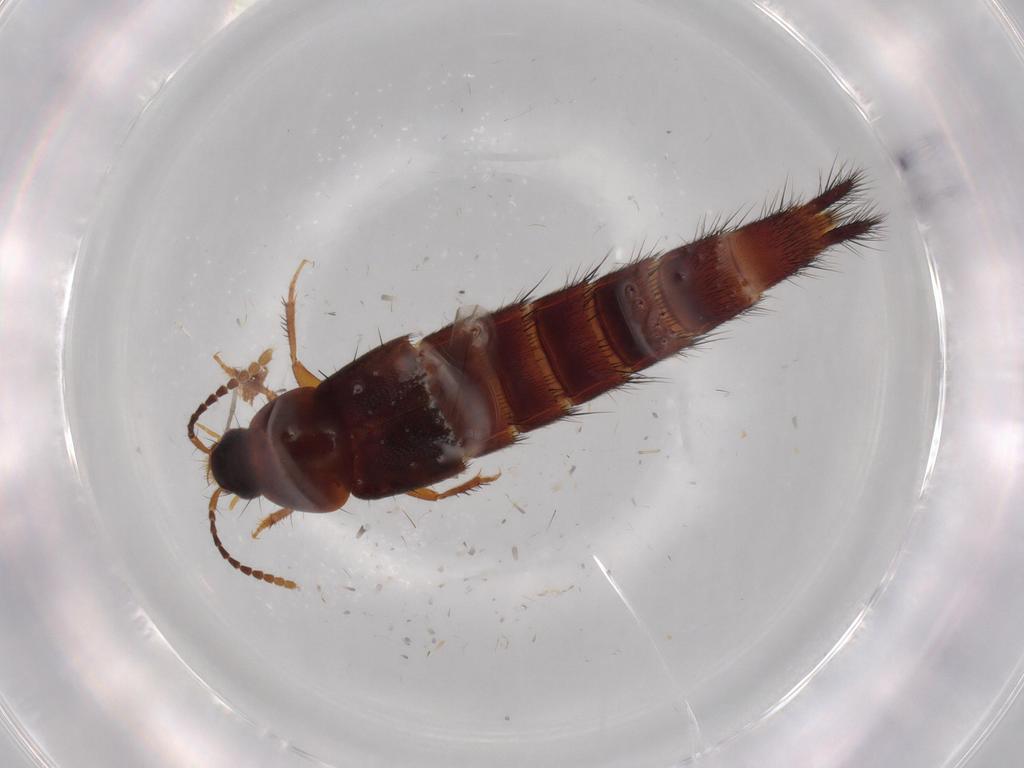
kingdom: Animalia
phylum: Arthropoda
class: Insecta
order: Coleoptera
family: Staphylinidae
